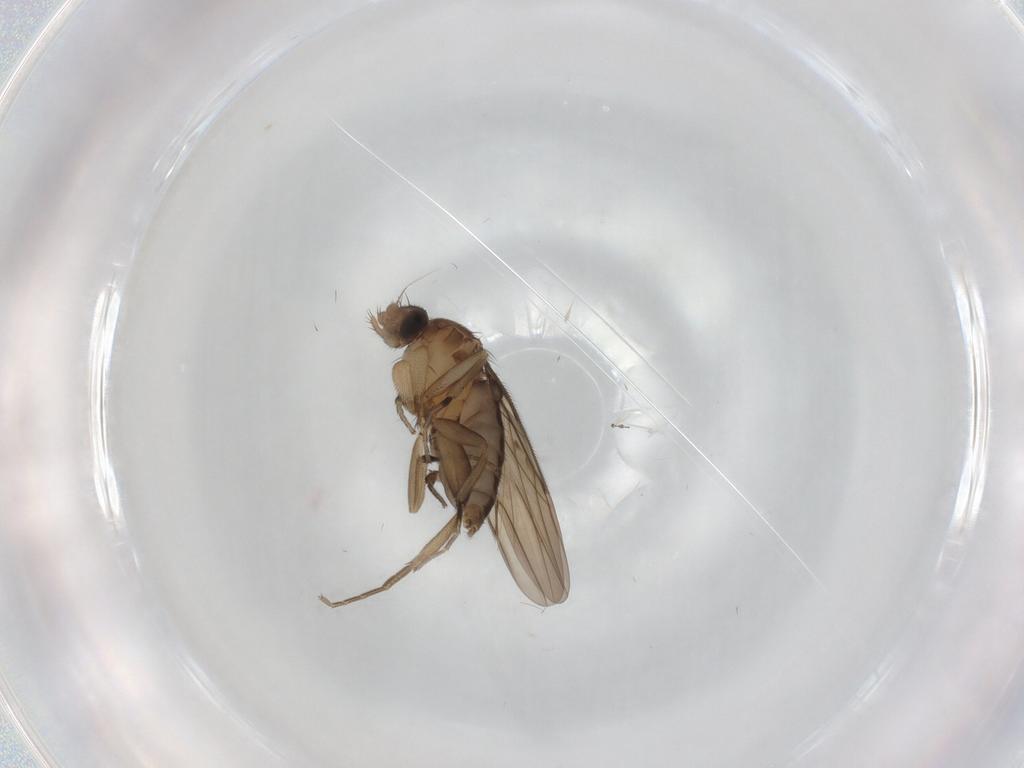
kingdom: Animalia
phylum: Arthropoda
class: Insecta
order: Diptera
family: Phoridae
